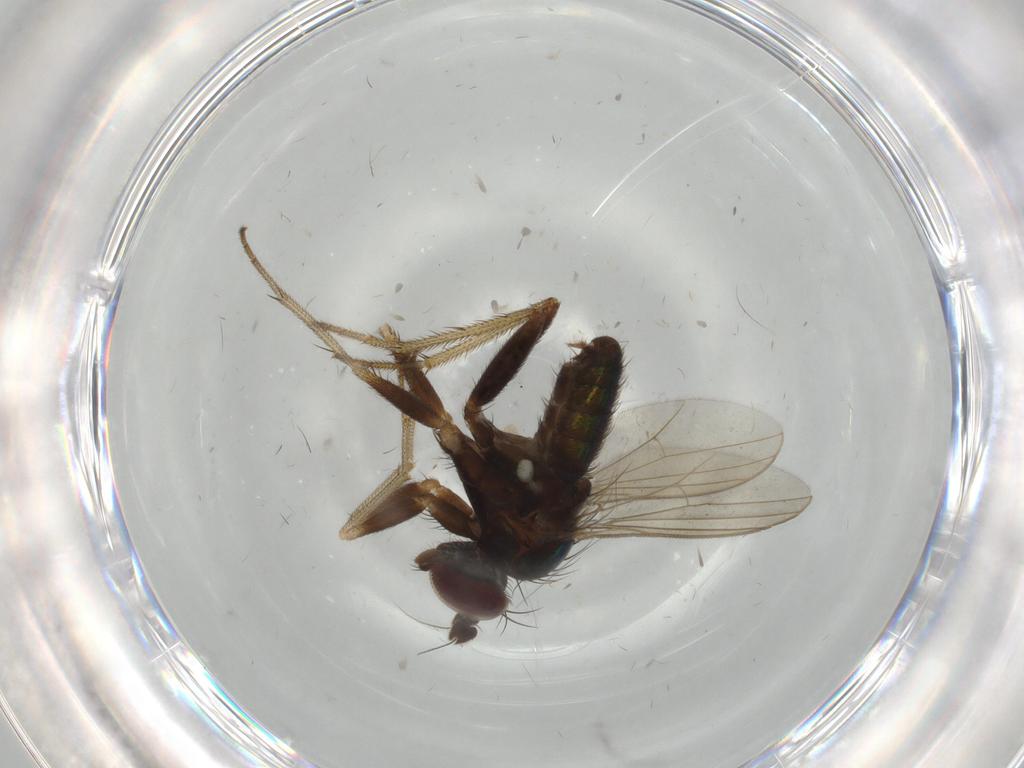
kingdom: Animalia
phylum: Arthropoda
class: Insecta
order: Diptera
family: Dolichopodidae
